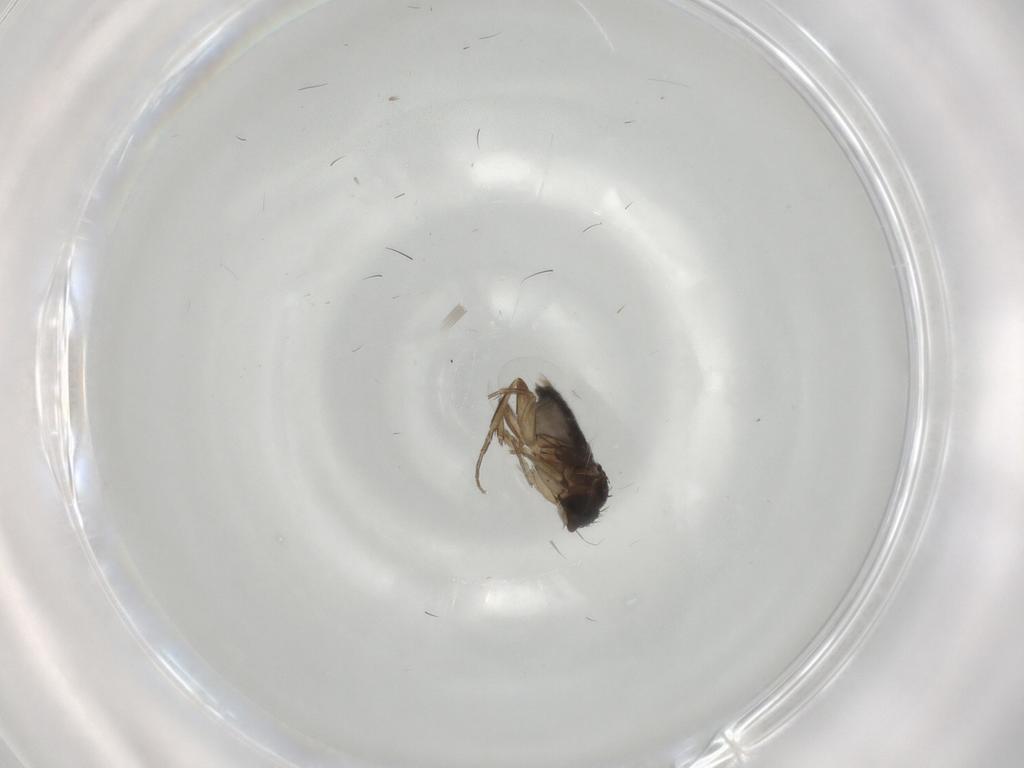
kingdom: Animalia
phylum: Arthropoda
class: Insecta
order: Diptera
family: Phoridae
